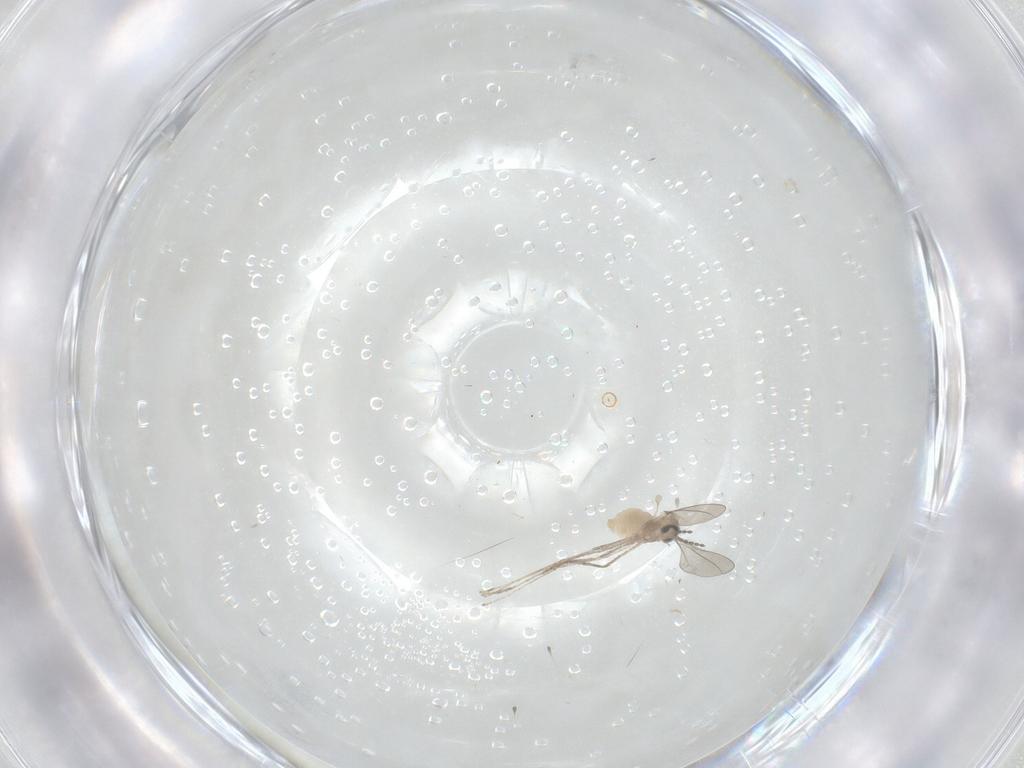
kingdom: Animalia
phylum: Arthropoda
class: Insecta
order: Diptera
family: Cecidomyiidae
